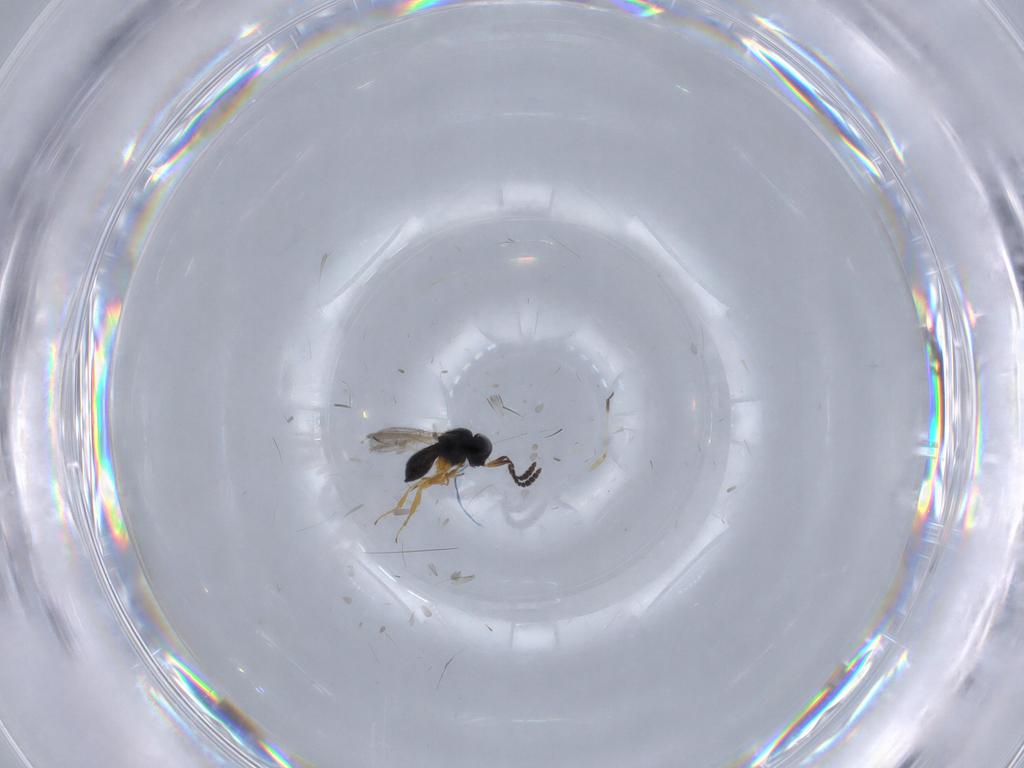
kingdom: Animalia
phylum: Arthropoda
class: Insecta
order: Hymenoptera
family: Scelionidae
